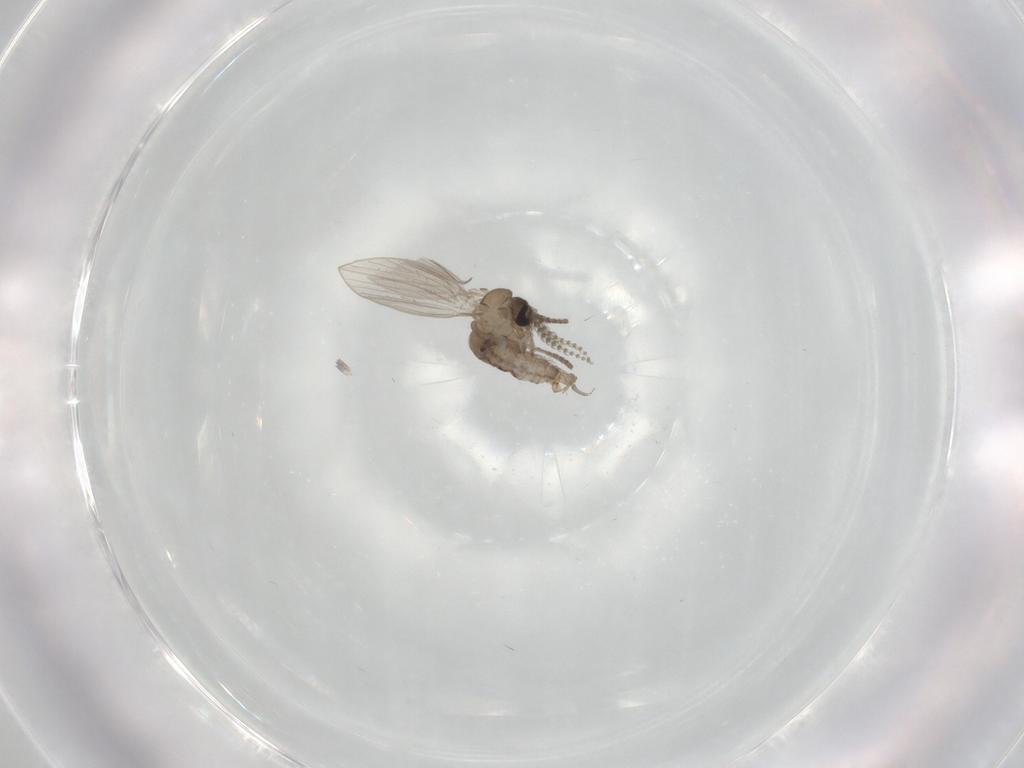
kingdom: Animalia
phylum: Arthropoda
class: Insecta
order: Diptera
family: Psychodidae
